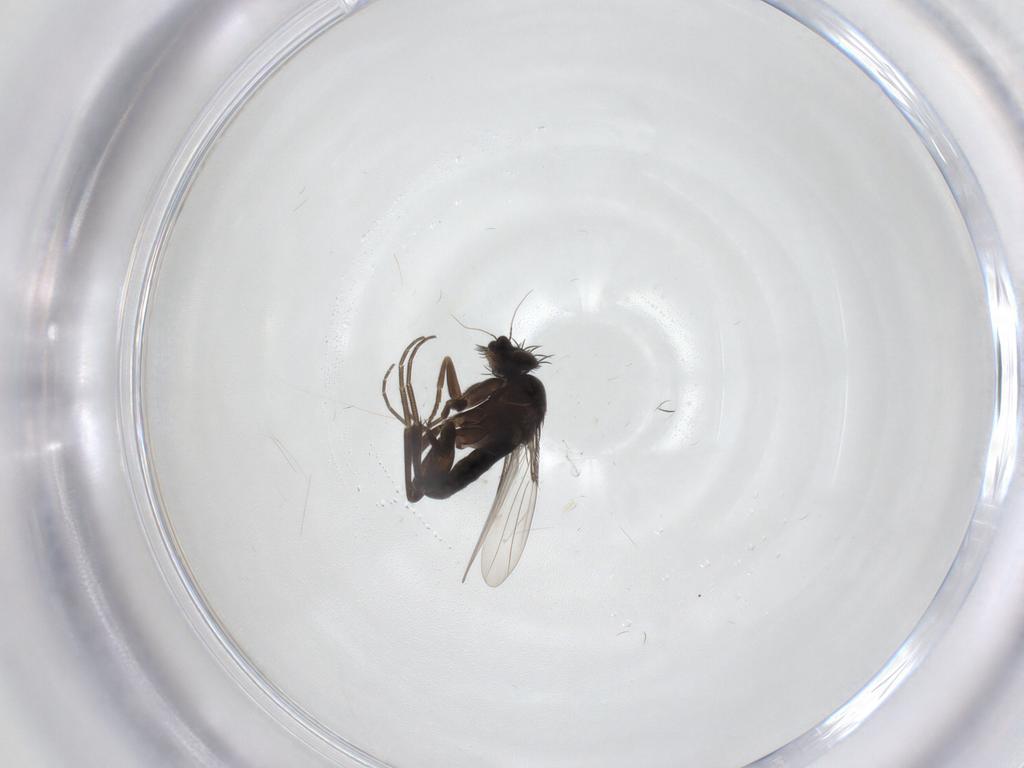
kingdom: Animalia
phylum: Arthropoda
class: Insecta
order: Diptera
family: Phoridae
